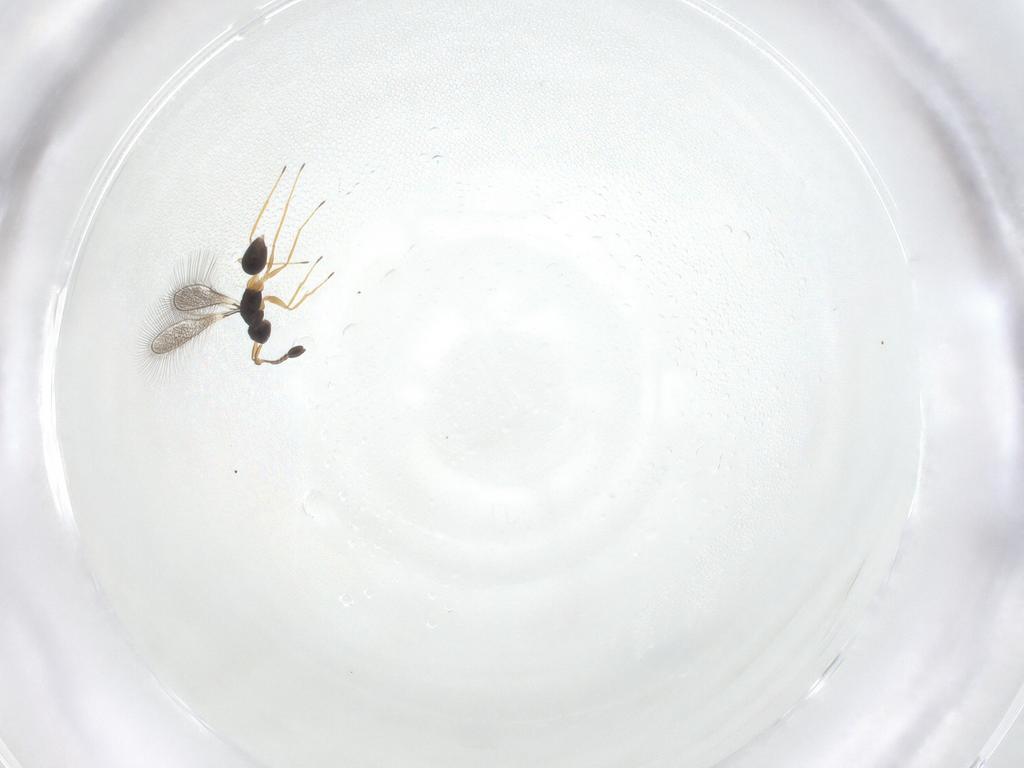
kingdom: Animalia
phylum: Arthropoda
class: Insecta
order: Hymenoptera
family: Mymaridae
